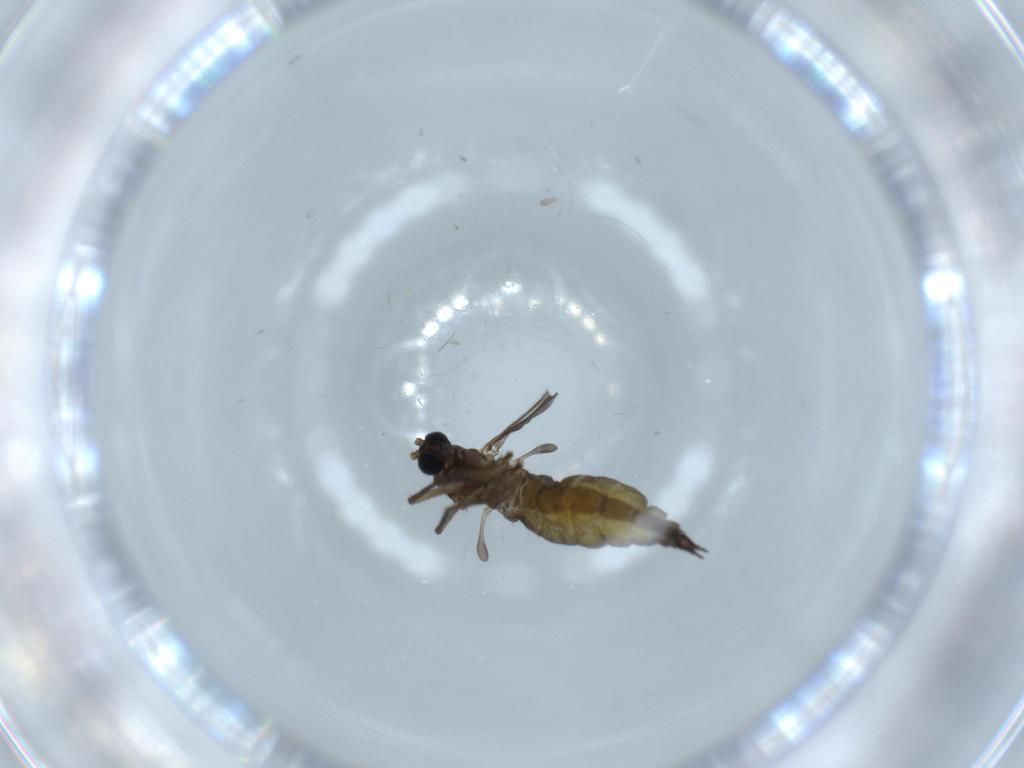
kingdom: Animalia
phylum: Arthropoda
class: Insecta
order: Diptera
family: Sciaridae
